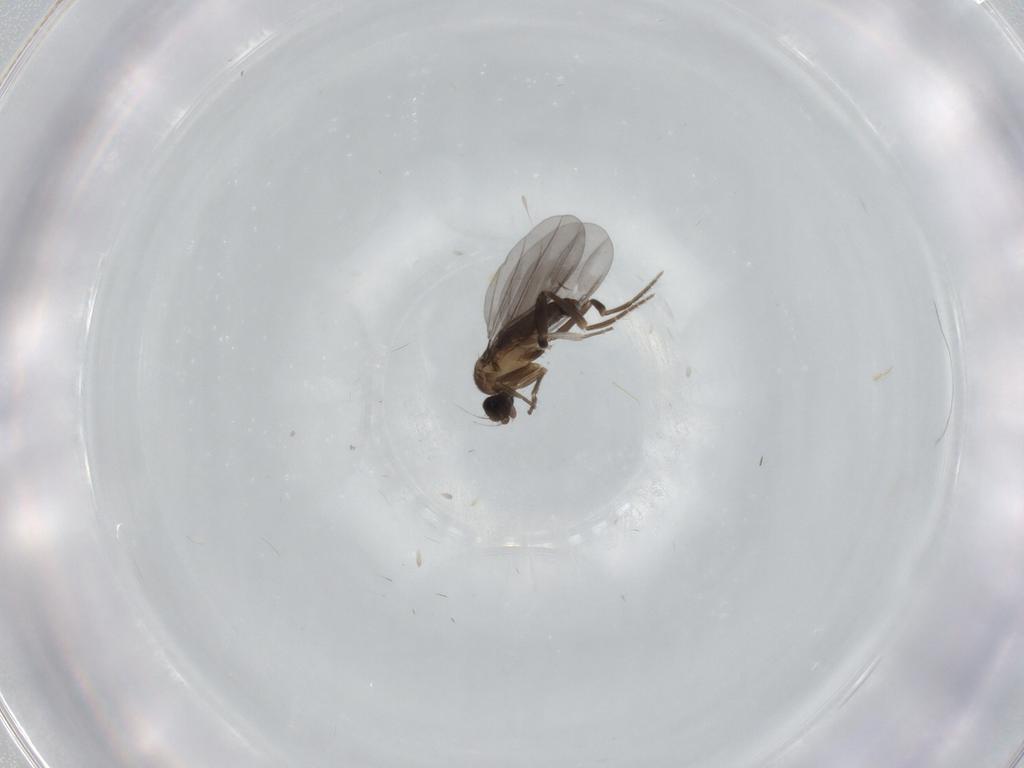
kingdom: Animalia
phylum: Arthropoda
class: Insecta
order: Diptera
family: Phoridae
